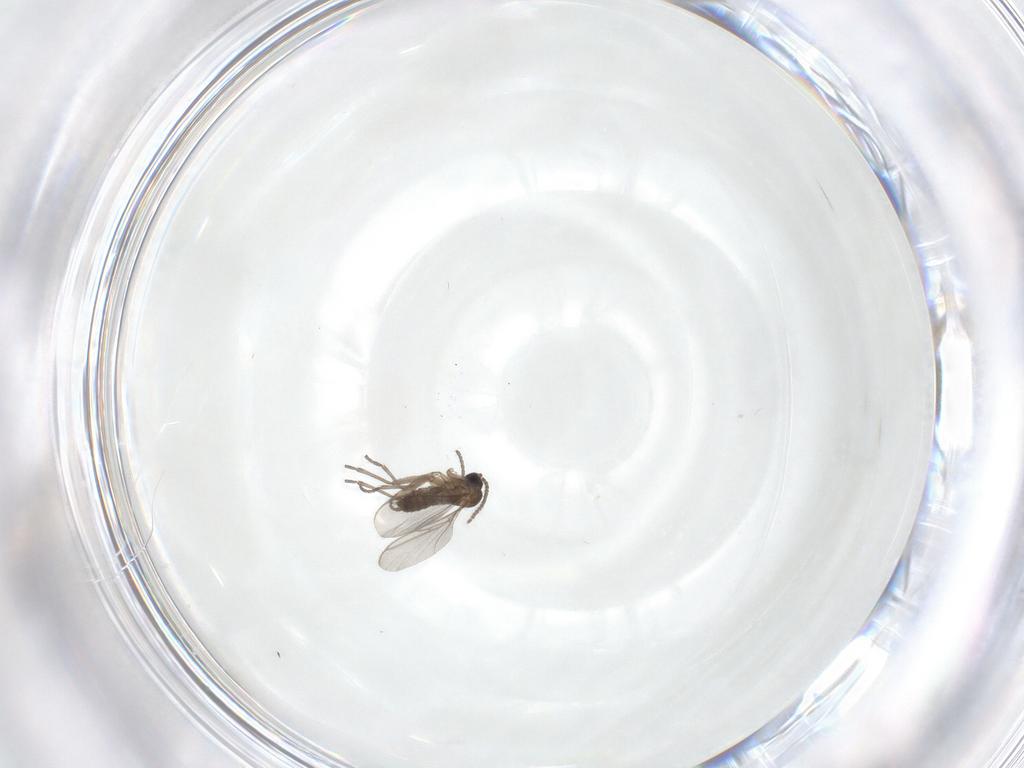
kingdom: Animalia
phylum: Arthropoda
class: Insecta
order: Diptera
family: Sciaridae
